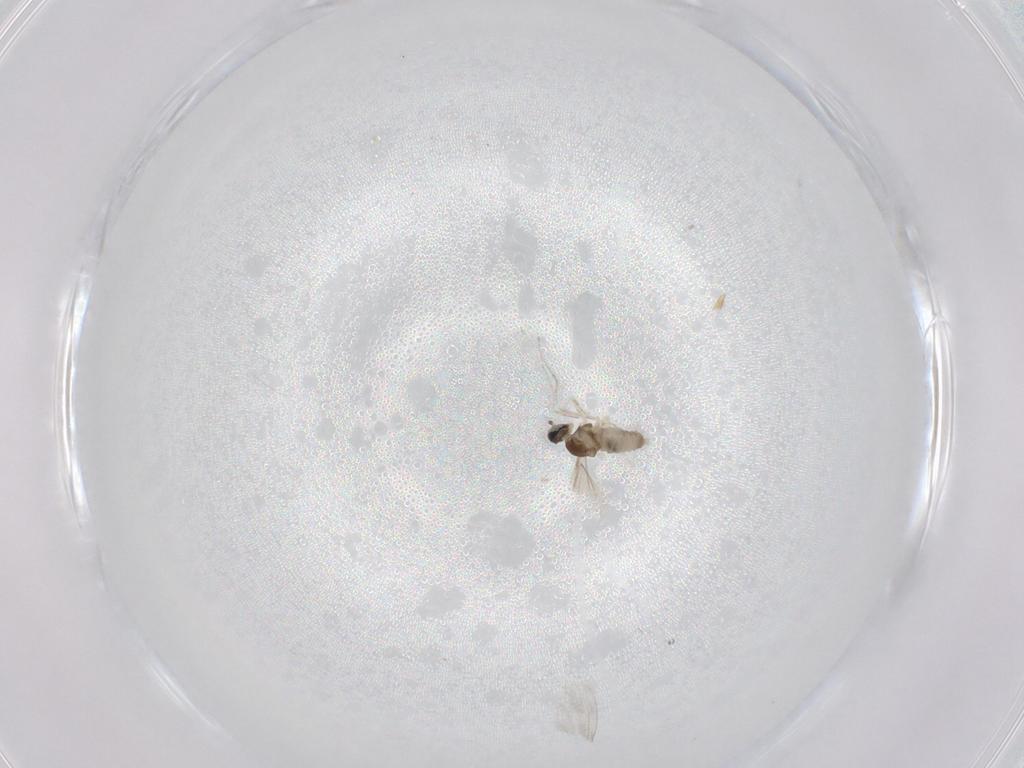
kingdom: Animalia
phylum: Arthropoda
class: Insecta
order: Diptera
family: Cecidomyiidae
